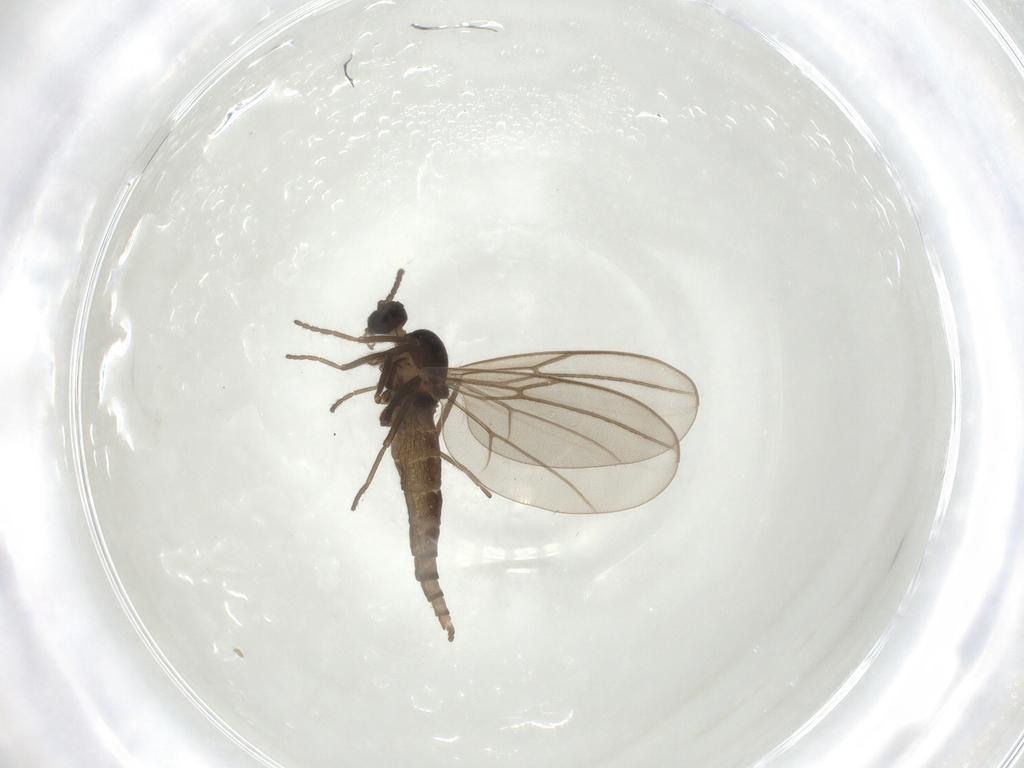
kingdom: Animalia
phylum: Arthropoda
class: Insecta
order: Diptera
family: Cecidomyiidae
